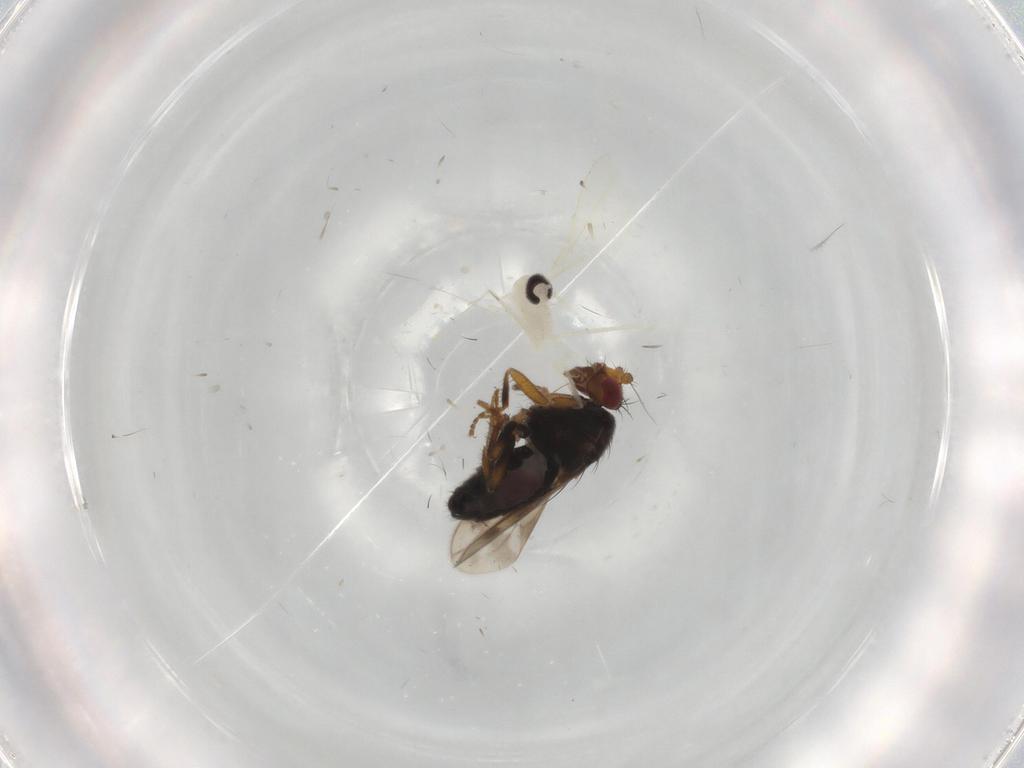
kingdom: Animalia
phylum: Arthropoda
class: Insecta
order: Diptera
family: Sphaeroceridae
